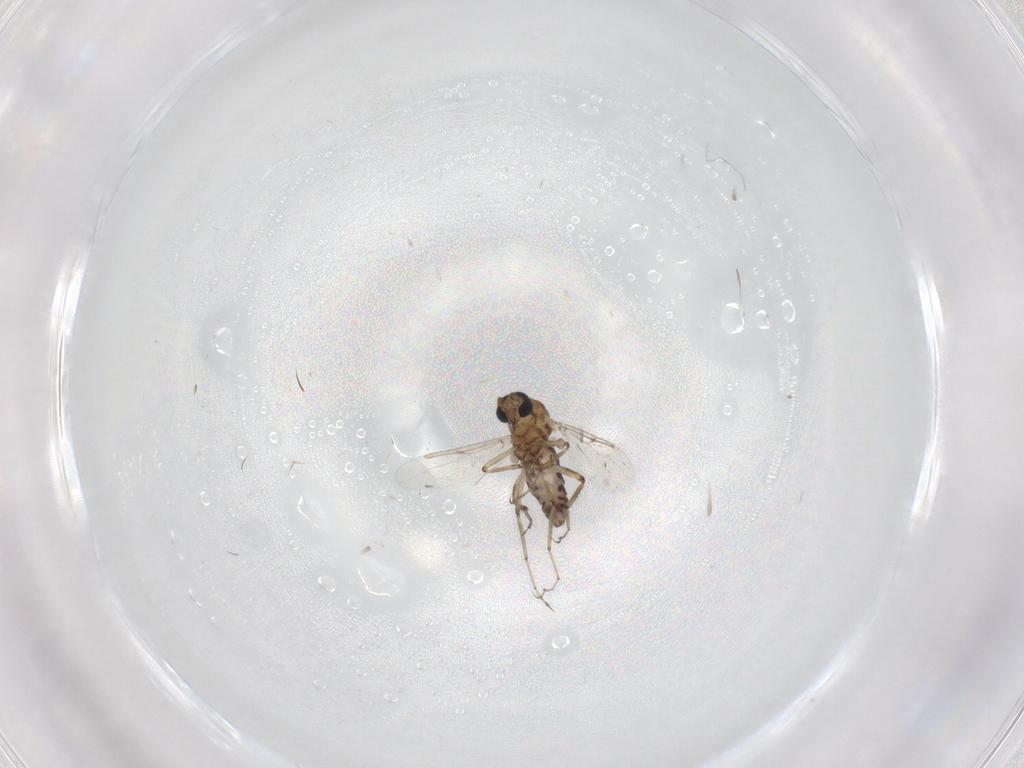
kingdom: Animalia
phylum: Arthropoda
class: Insecta
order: Diptera
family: Ceratopogonidae
